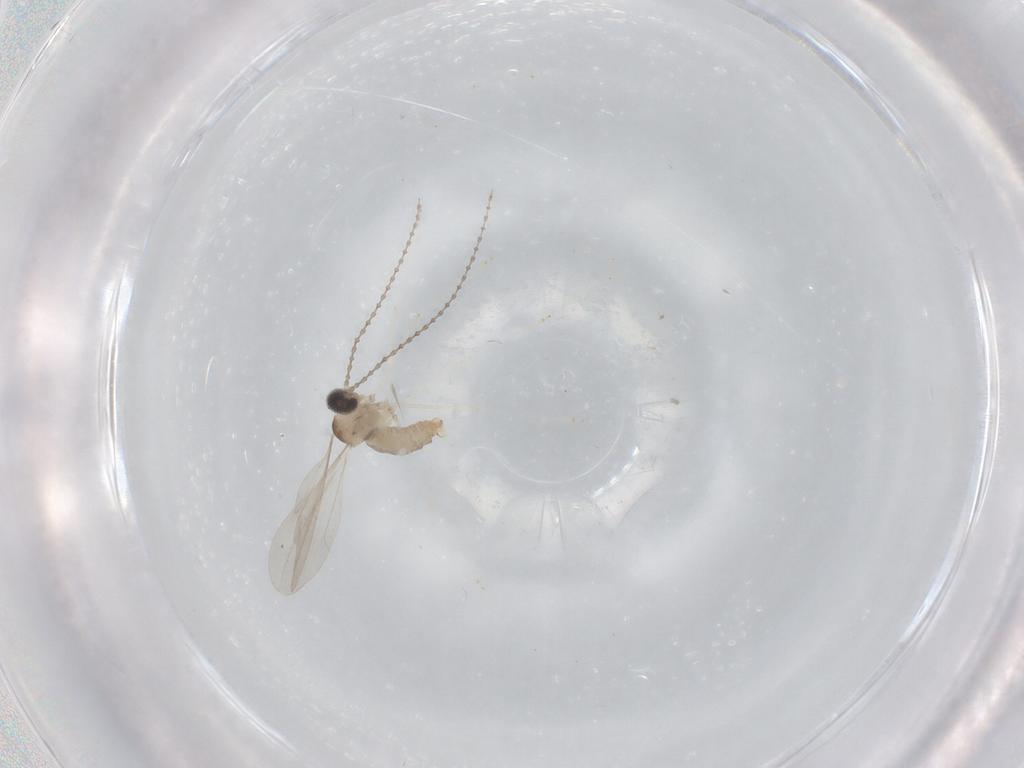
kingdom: Animalia
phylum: Arthropoda
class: Insecta
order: Diptera
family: Cecidomyiidae
